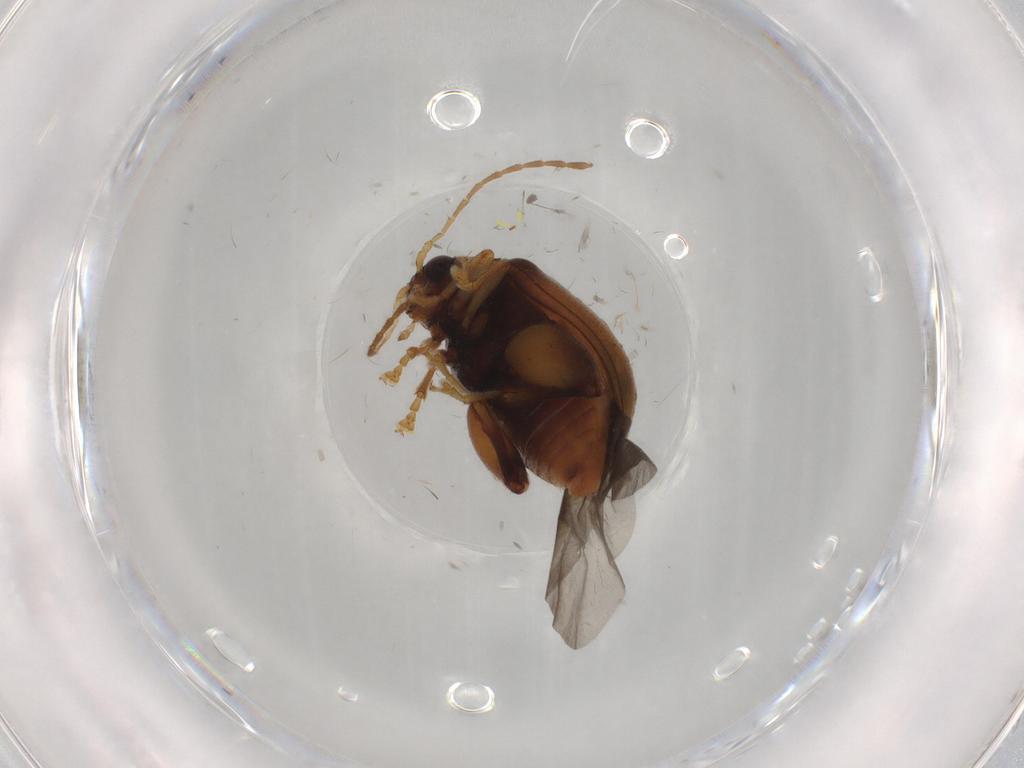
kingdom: Animalia
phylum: Arthropoda
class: Insecta
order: Coleoptera
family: Chrysomelidae
